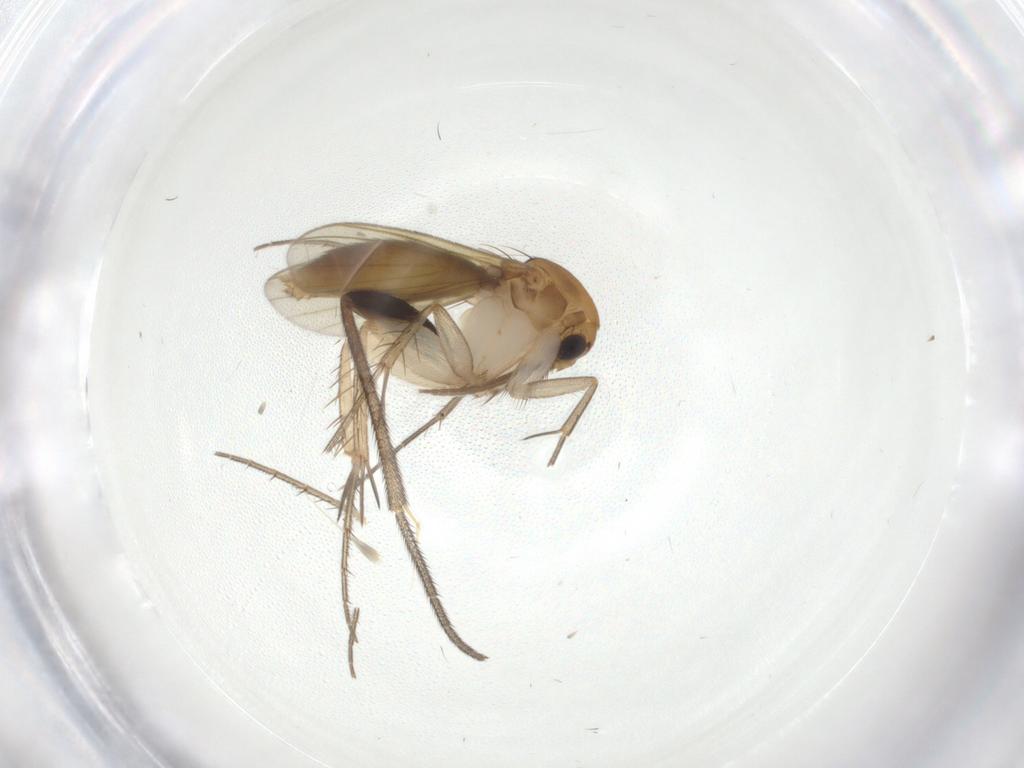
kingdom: Animalia
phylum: Arthropoda
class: Insecta
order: Diptera
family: Mycetophilidae
